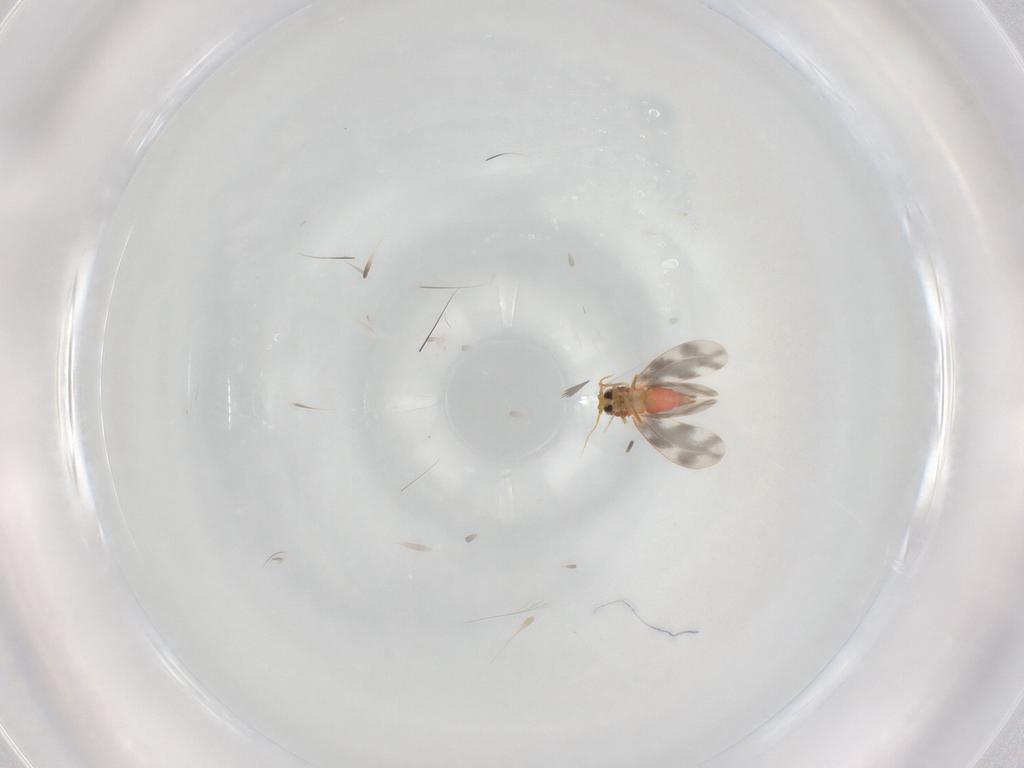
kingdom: Animalia
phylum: Arthropoda
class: Insecta
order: Hemiptera
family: Aleyrodidae
